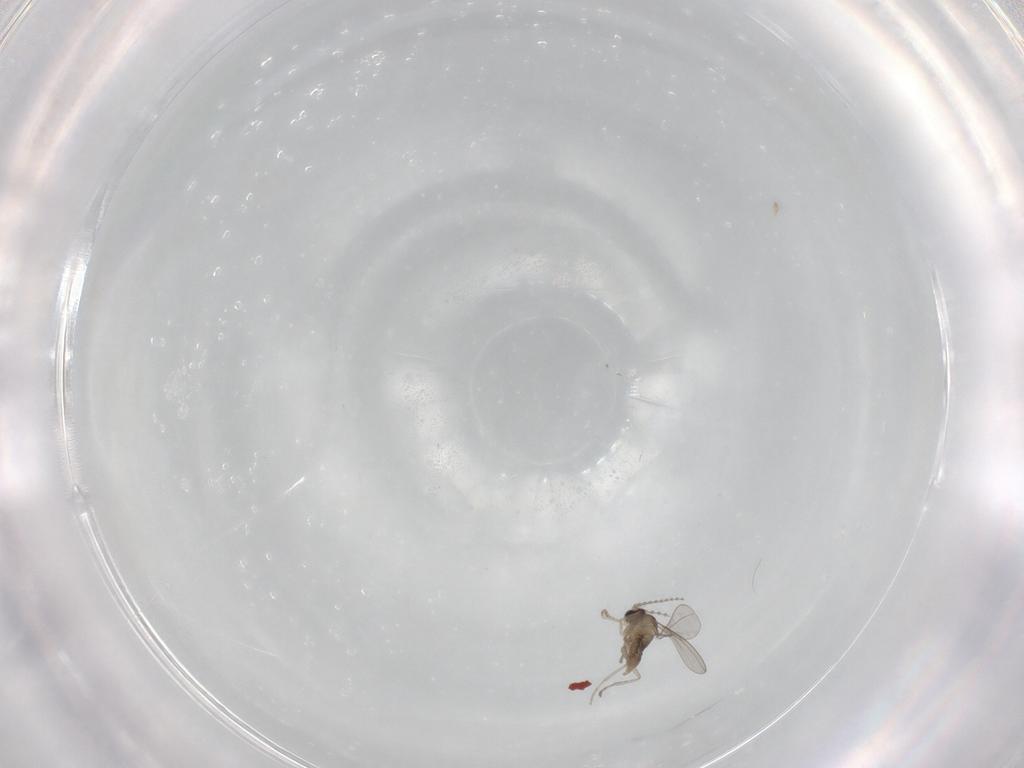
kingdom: Animalia
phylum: Arthropoda
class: Insecta
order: Diptera
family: Cecidomyiidae
